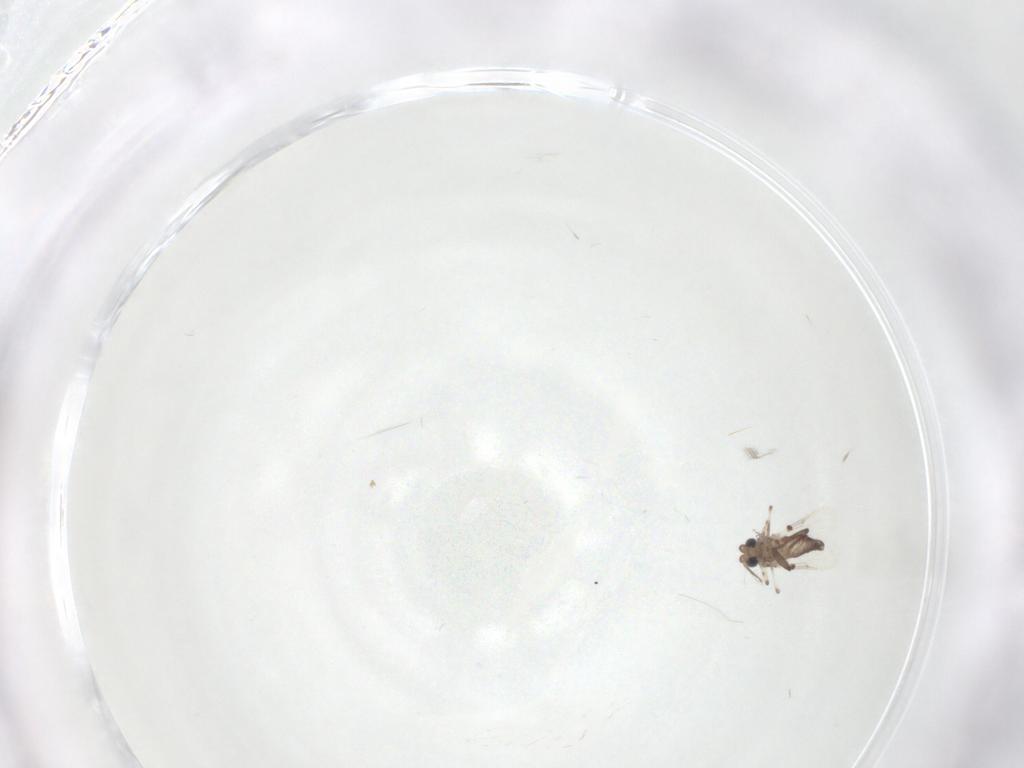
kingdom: Animalia
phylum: Arthropoda
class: Insecta
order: Diptera
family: Ceratopogonidae
